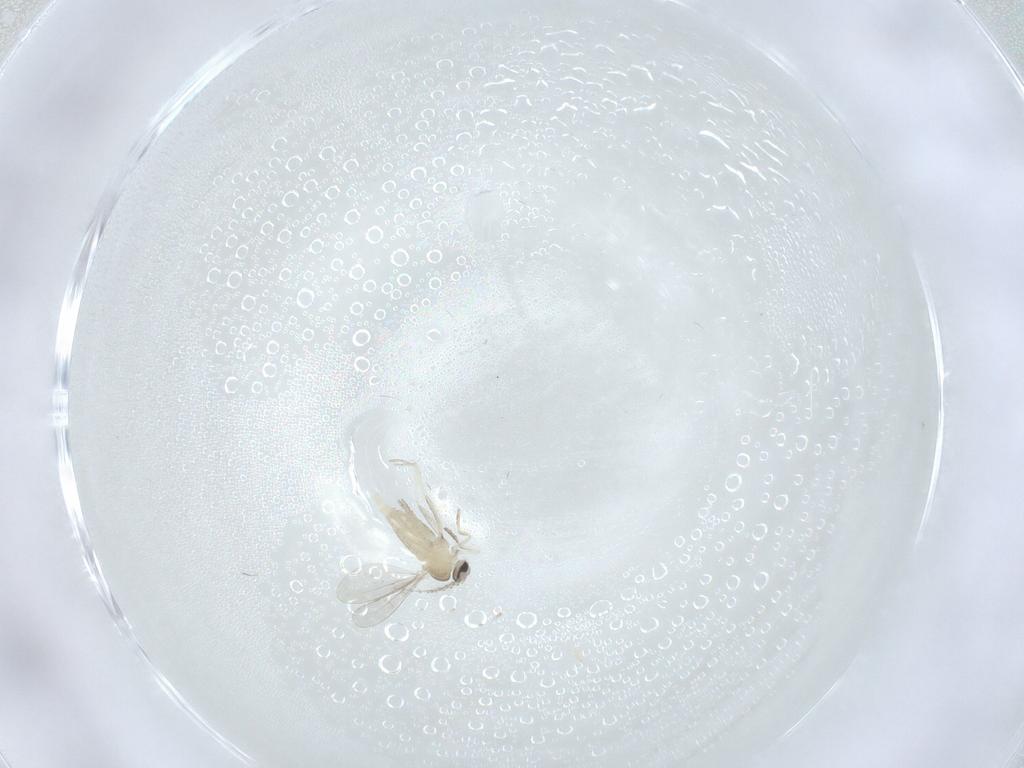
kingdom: Animalia
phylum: Arthropoda
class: Insecta
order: Diptera
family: Cecidomyiidae
